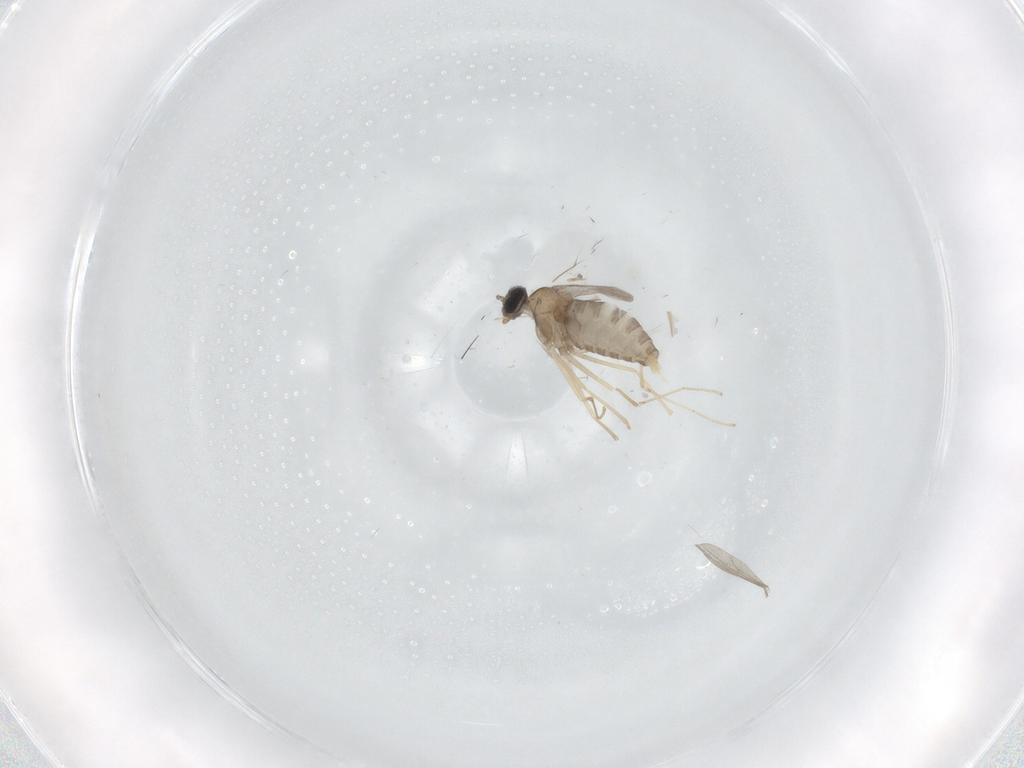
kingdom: Animalia
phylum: Arthropoda
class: Insecta
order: Diptera
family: Cecidomyiidae
